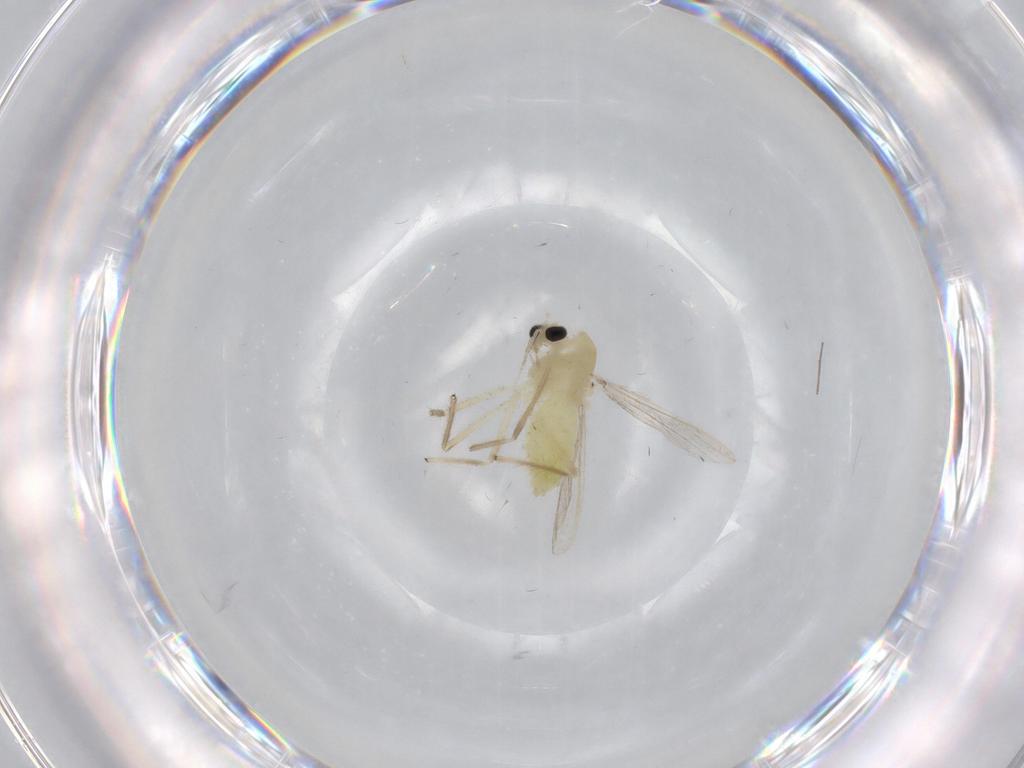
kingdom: Animalia
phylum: Arthropoda
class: Insecta
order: Diptera
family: Chironomidae
